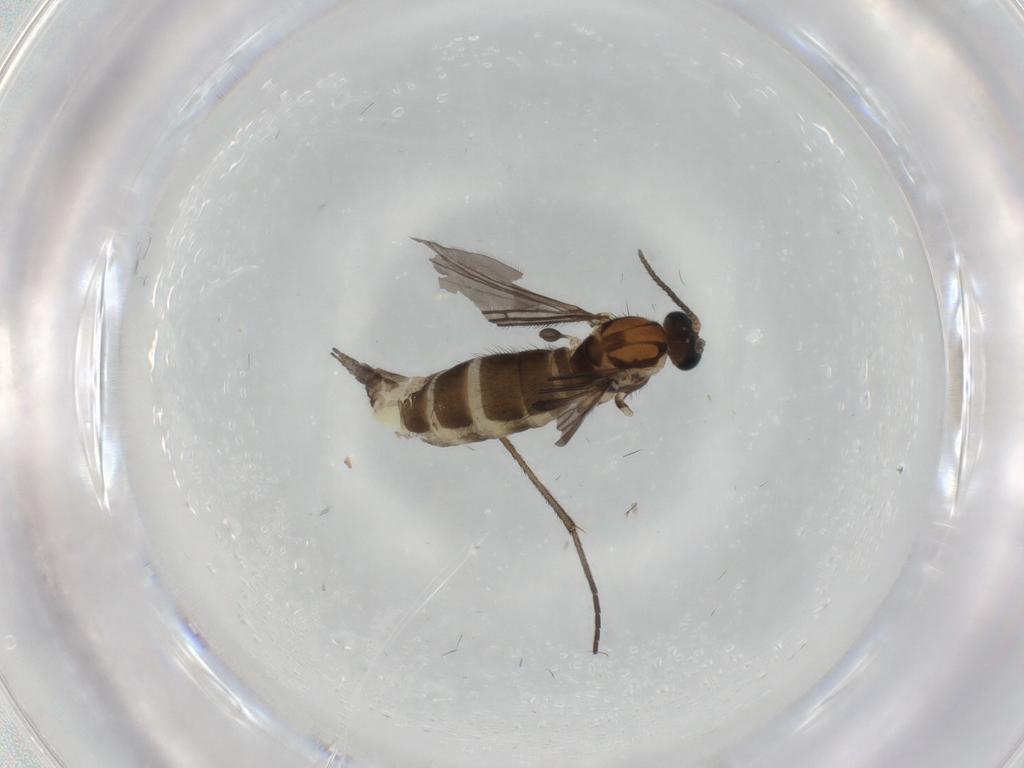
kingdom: Animalia
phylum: Arthropoda
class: Insecta
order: Diptera
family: Sciaridae
